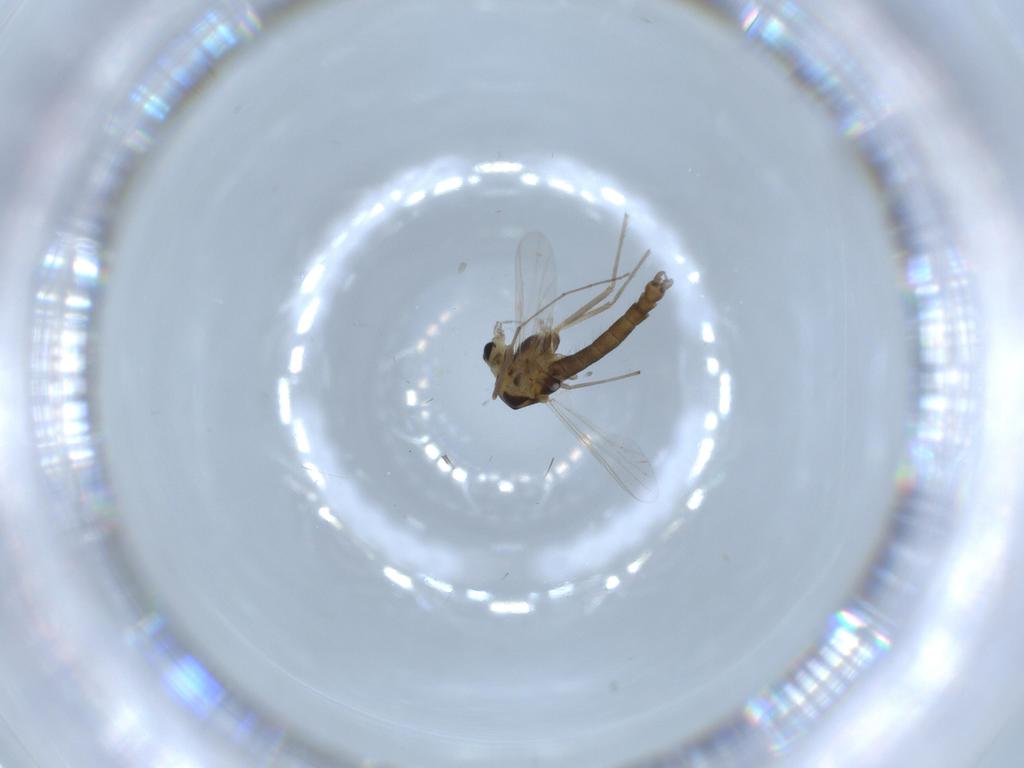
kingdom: Animalia
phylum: Arthropoda
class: Insecta
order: Diptera
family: Chironomidae
